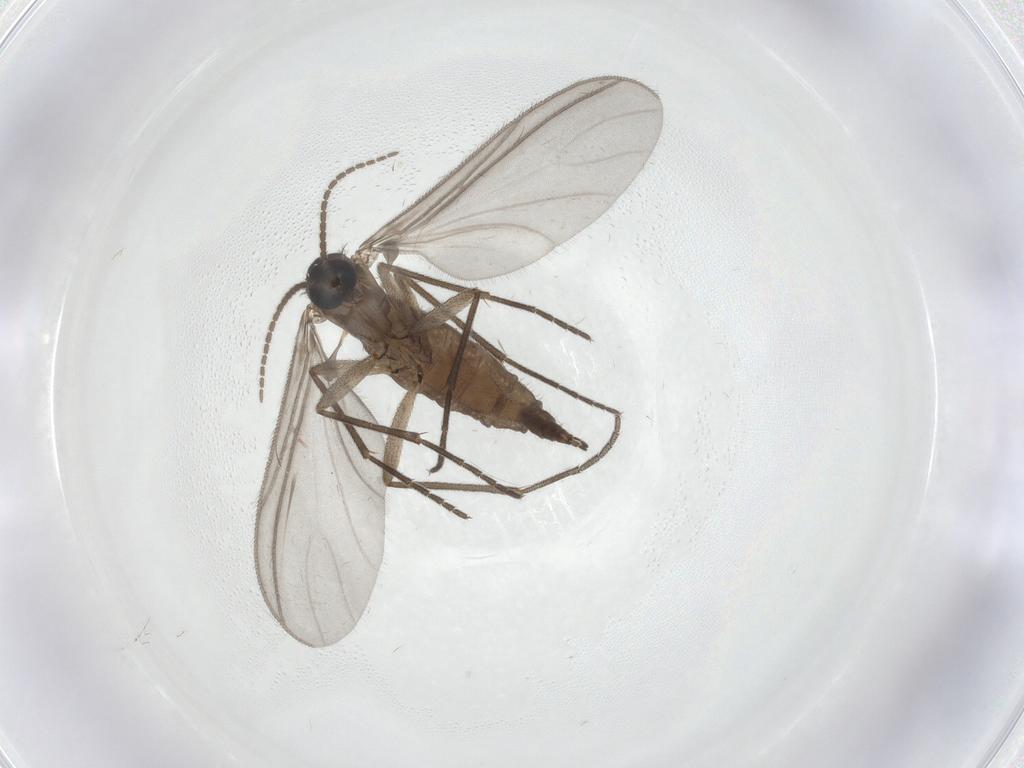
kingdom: Animalia
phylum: Arthropoda
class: Insecta
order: Diptera
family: Sciaridae
